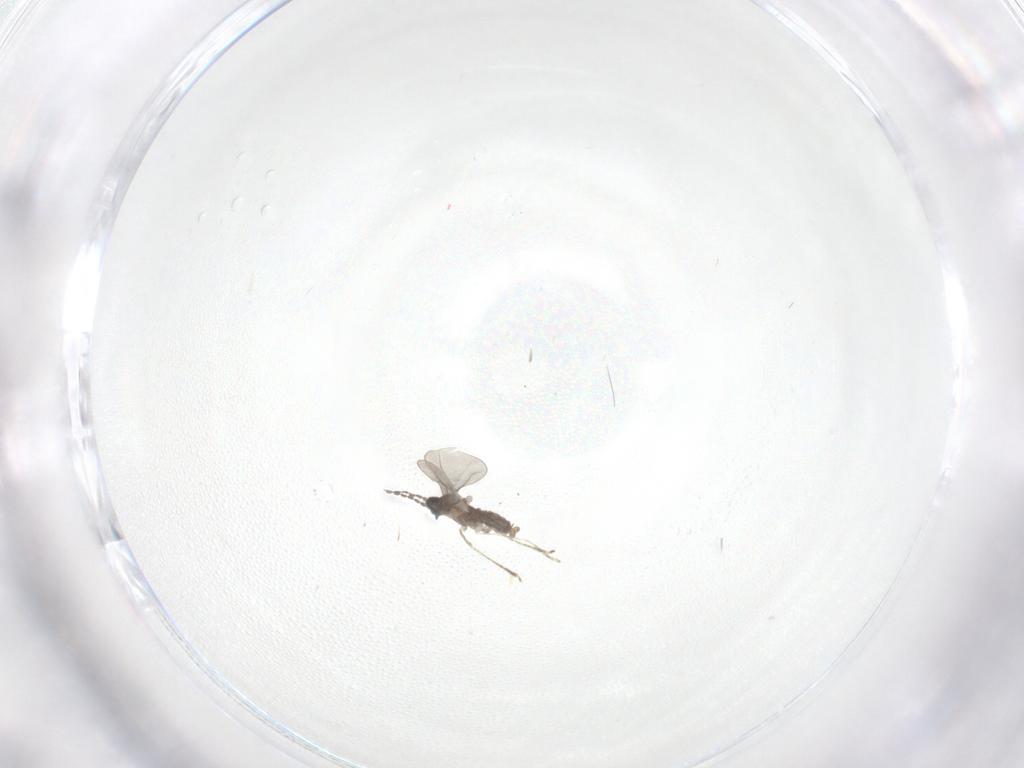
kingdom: Animalia
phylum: Arthropoda
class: Insecta
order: Diptera
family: Cecidomyiidae
